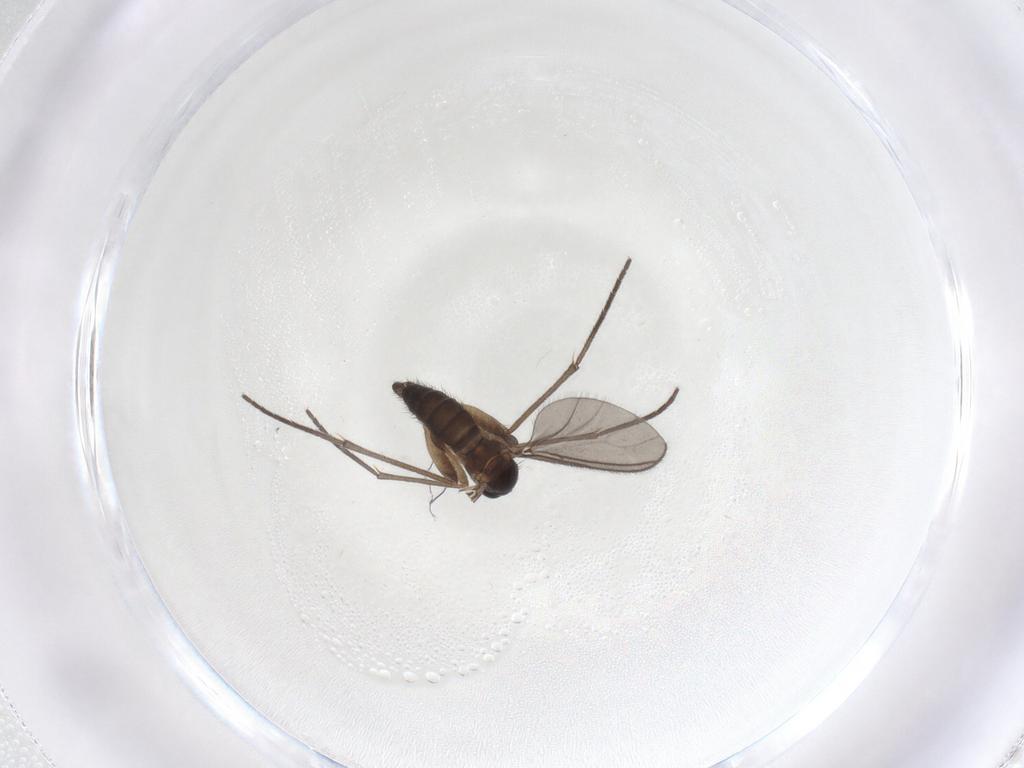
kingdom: Animalia
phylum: Arthropoda
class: Insecta
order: Diptera
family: Sciaridae
